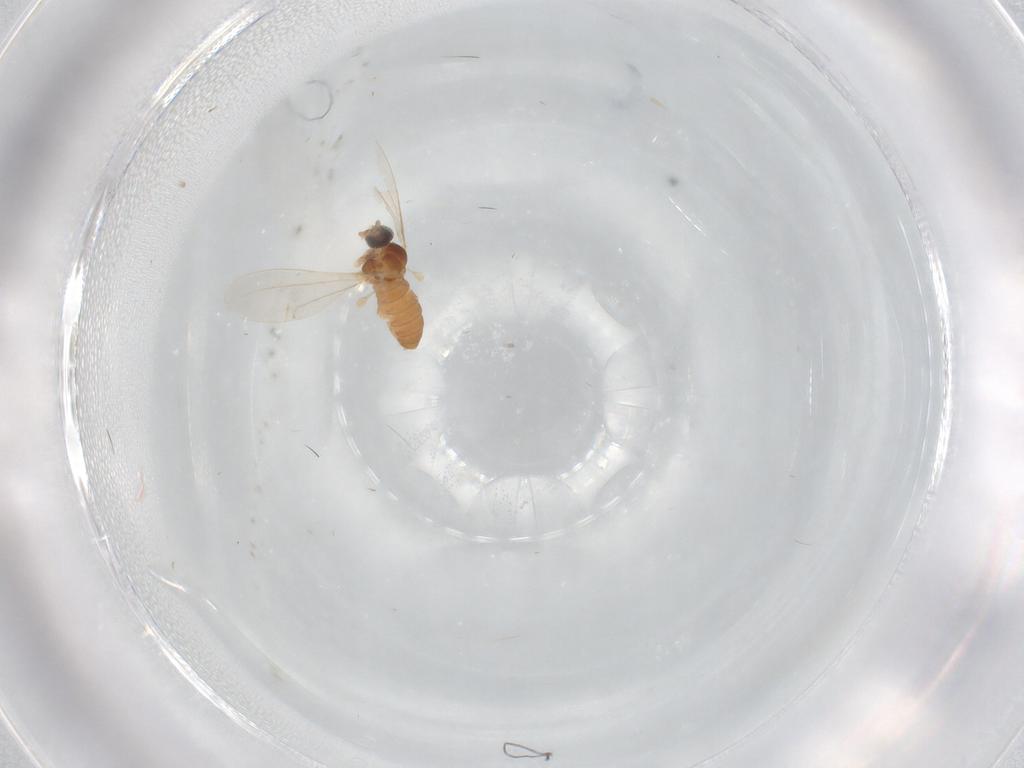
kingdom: Animalia
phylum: Arthropoda
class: Insecta
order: Diptera
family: Cecidomyiidae
